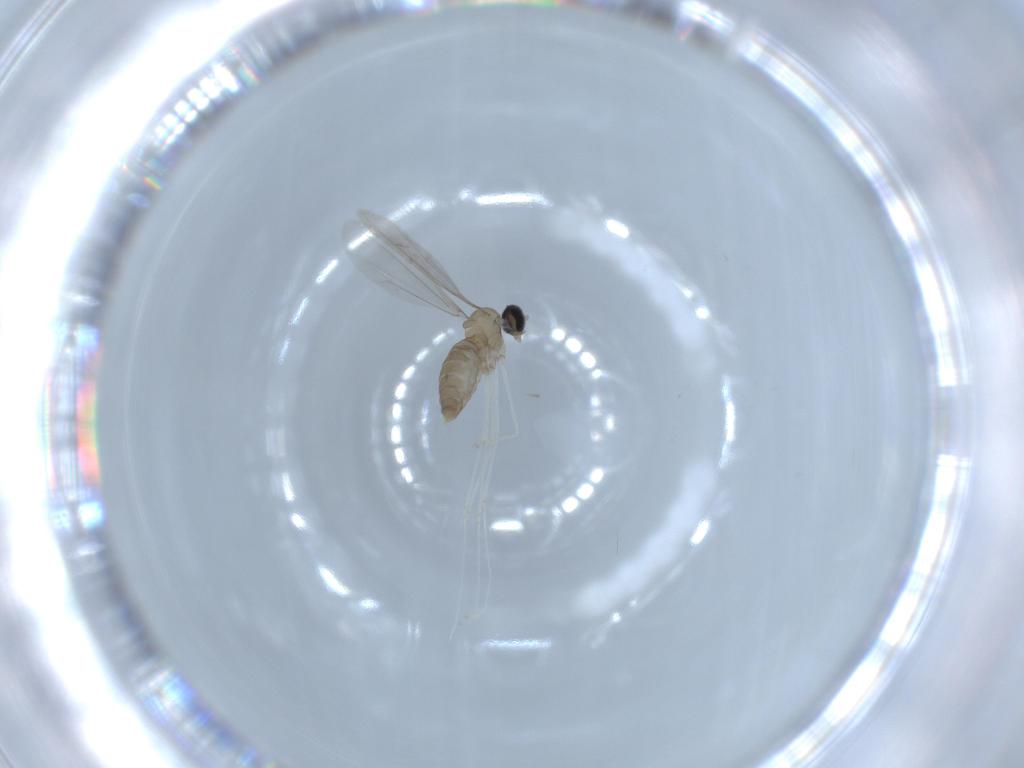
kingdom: Animalia
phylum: Arthropoda
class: Insecta
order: Diptera
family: Cecidomyiidae
